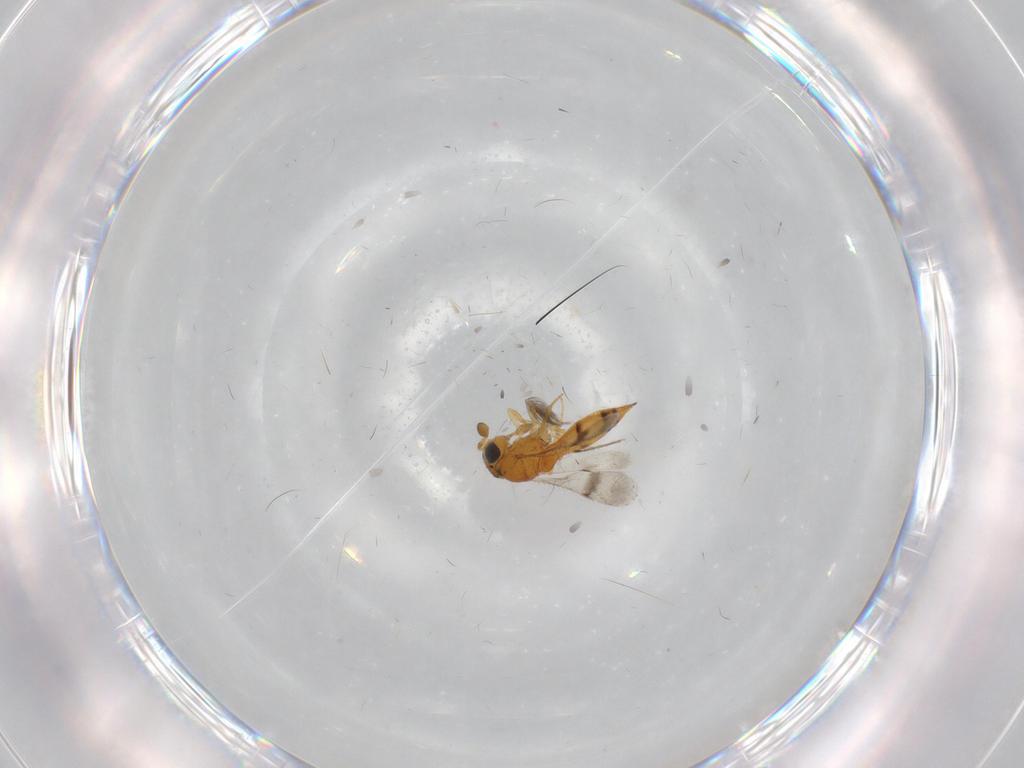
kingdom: Animalia
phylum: Arthropoda
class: Insecta
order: Hymenoptera
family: Scelionidae
